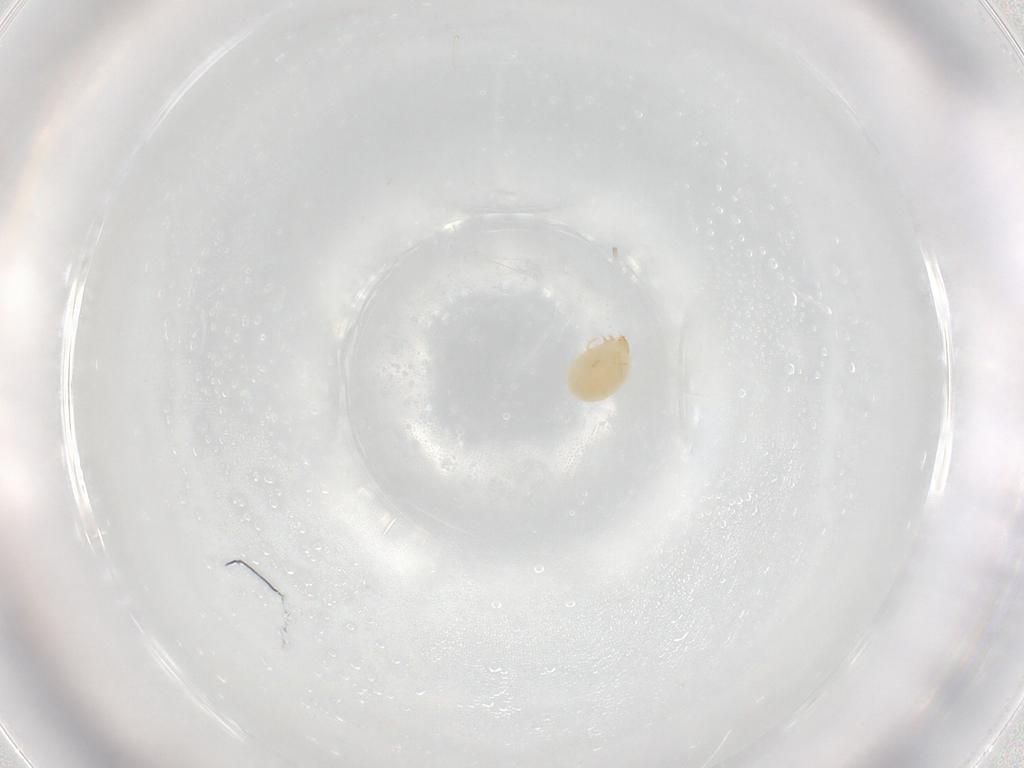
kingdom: Animalia
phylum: Arthropoda
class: Arachnida
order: Trombidiformes
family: Microtrombidiidae
